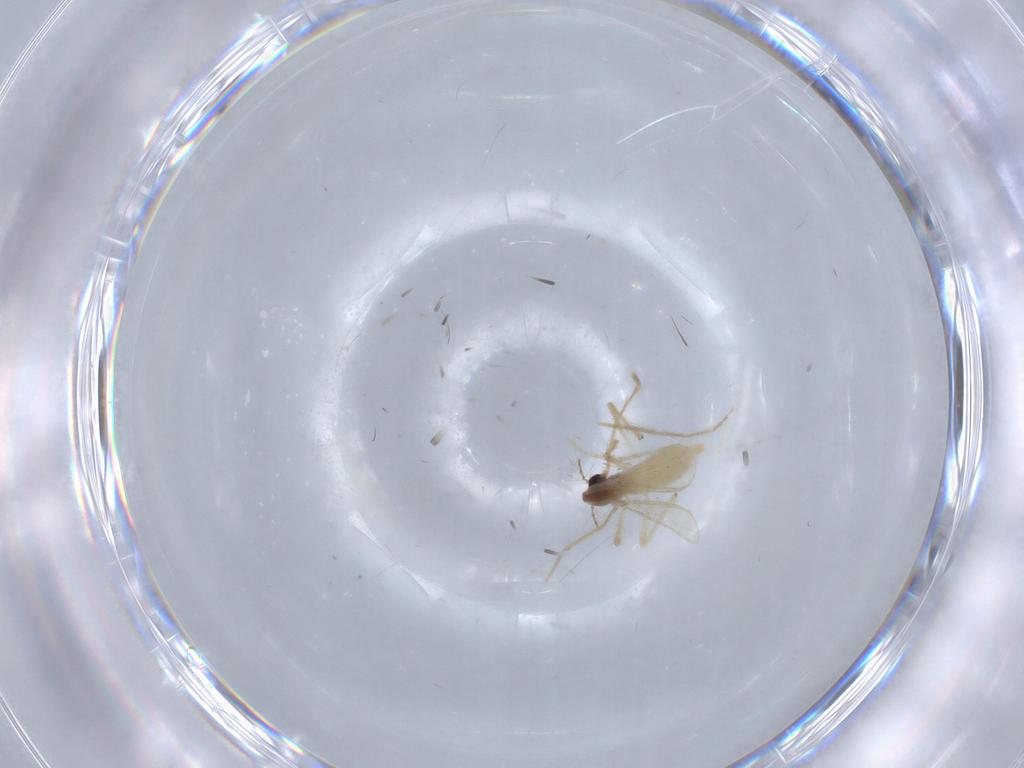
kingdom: Animalia
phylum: Arthropoda
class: Insecta
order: Diptera
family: Chironomidae
